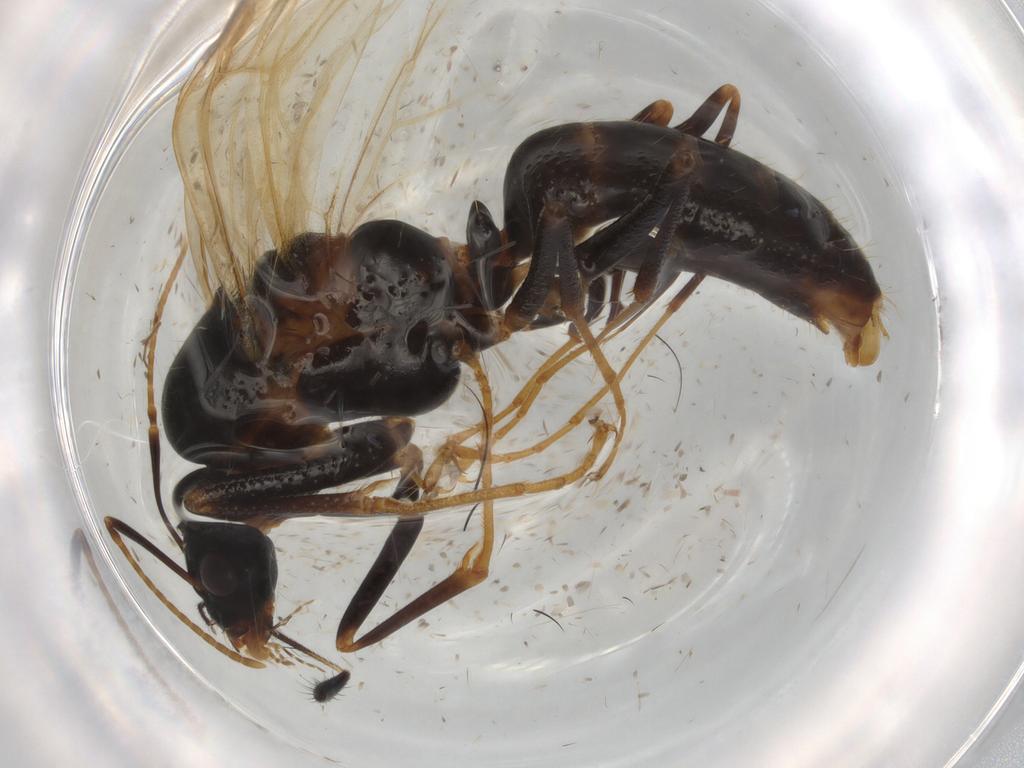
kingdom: Animalia
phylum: Arthropoda
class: Insecta
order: Hymenoptera
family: Formicidae
